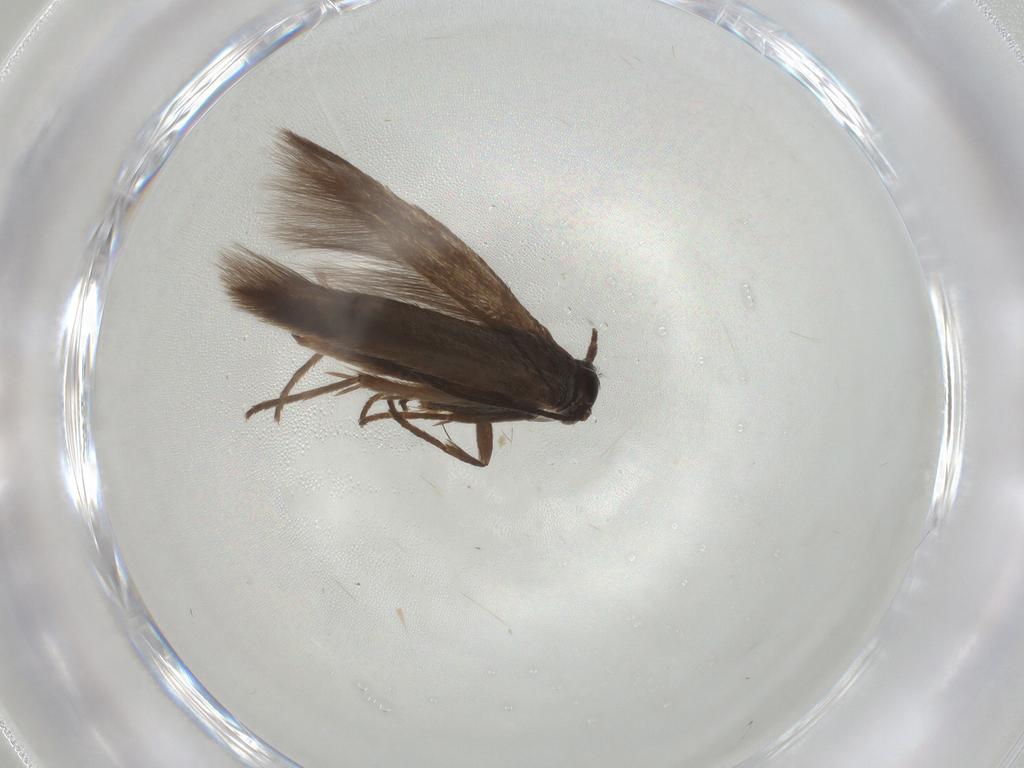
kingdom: Animalia
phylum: Arthropoda
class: Insecta
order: Lepidoptera
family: Scythrididae
